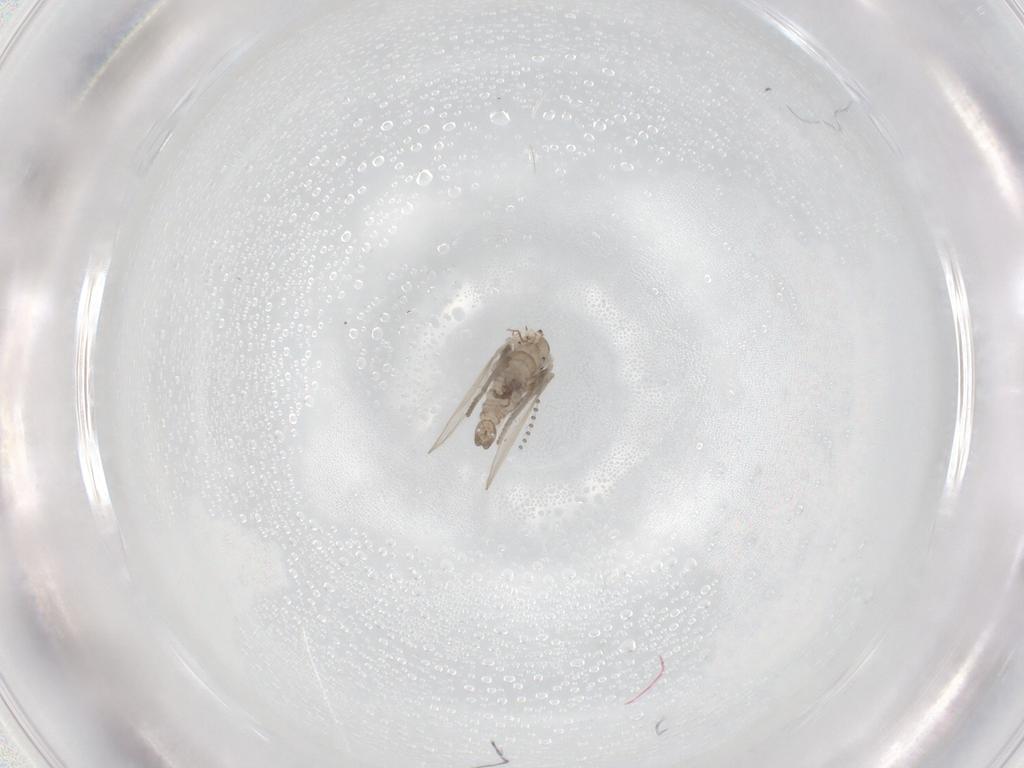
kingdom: Animalia
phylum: Arthropoda
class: Insecta
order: Diptera
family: Psychodidae
